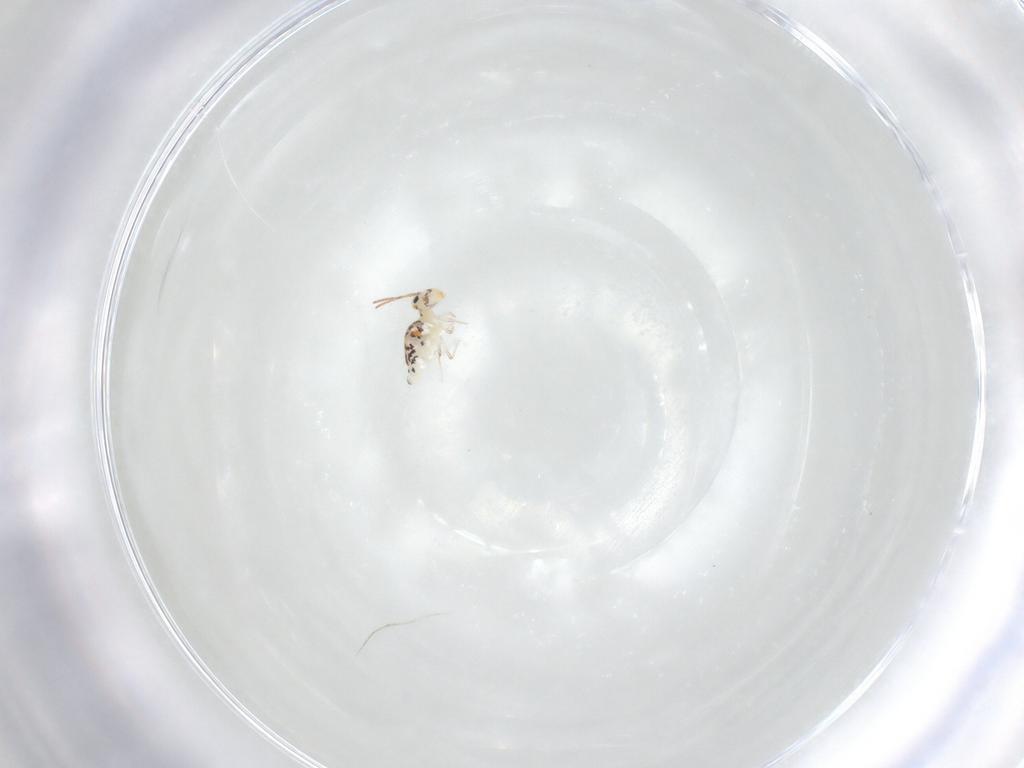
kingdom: Animalia
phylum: Arthropoda
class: Collembola
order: Symphypleona
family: Bourletiellidae
